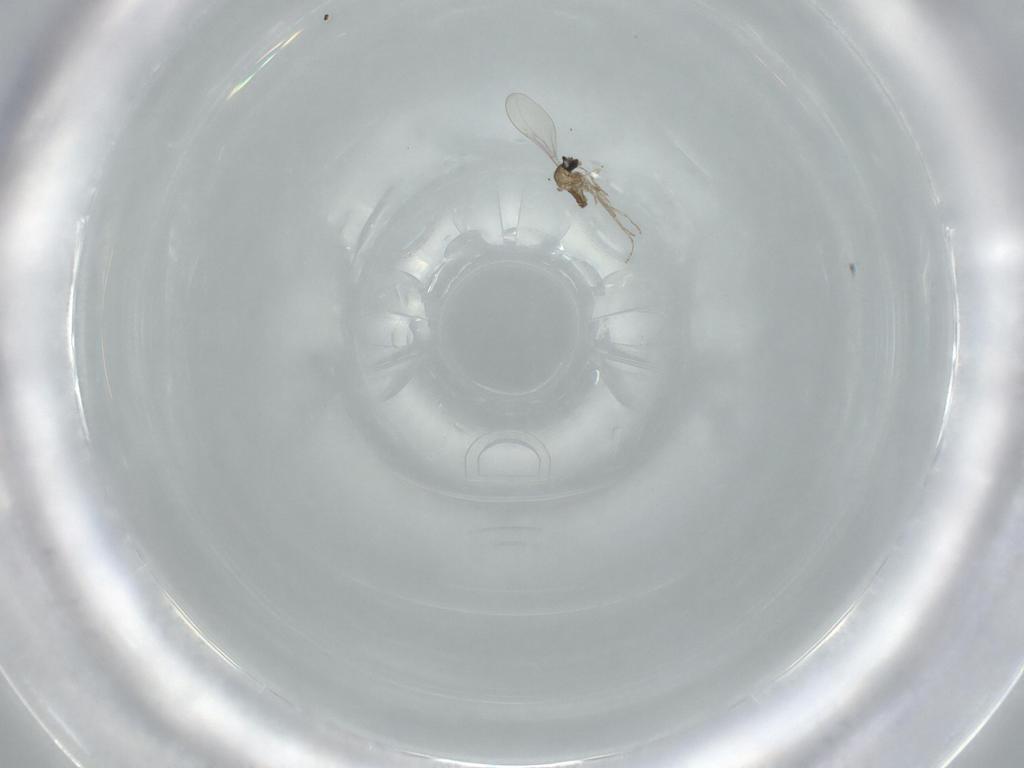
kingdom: Animalia
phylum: Arthropoda
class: Insecta
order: Diptera
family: Cecidomyiidae
